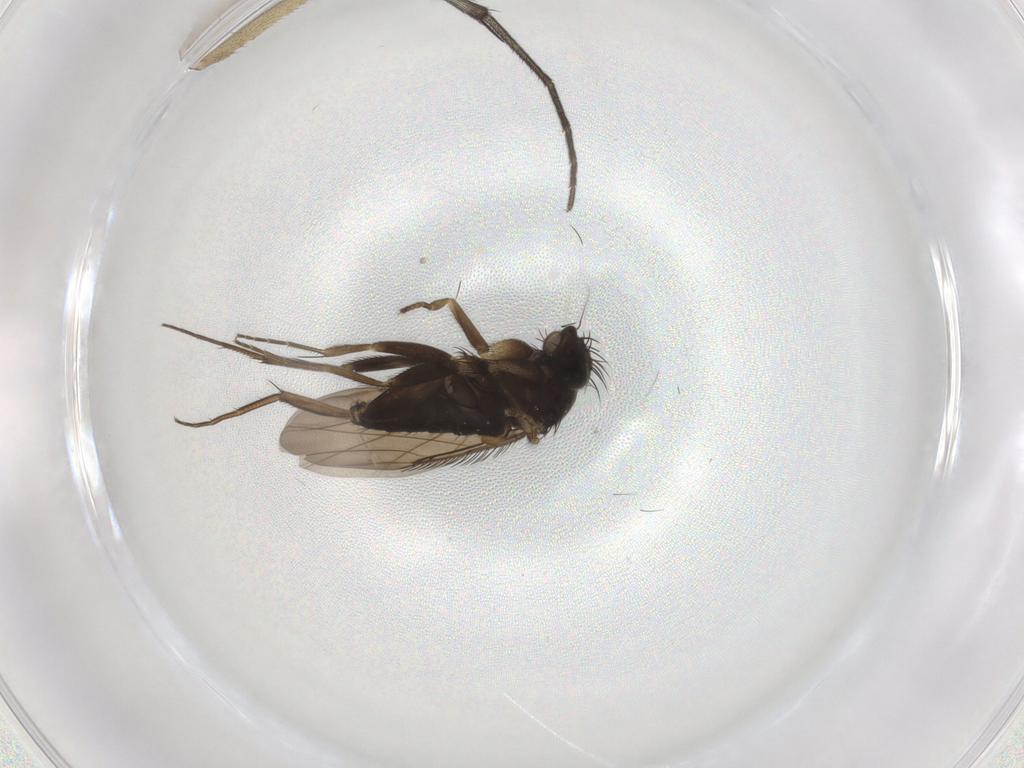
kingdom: Animalia
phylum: Arthropoda
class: Insecta
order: Diptera
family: Phoridae
